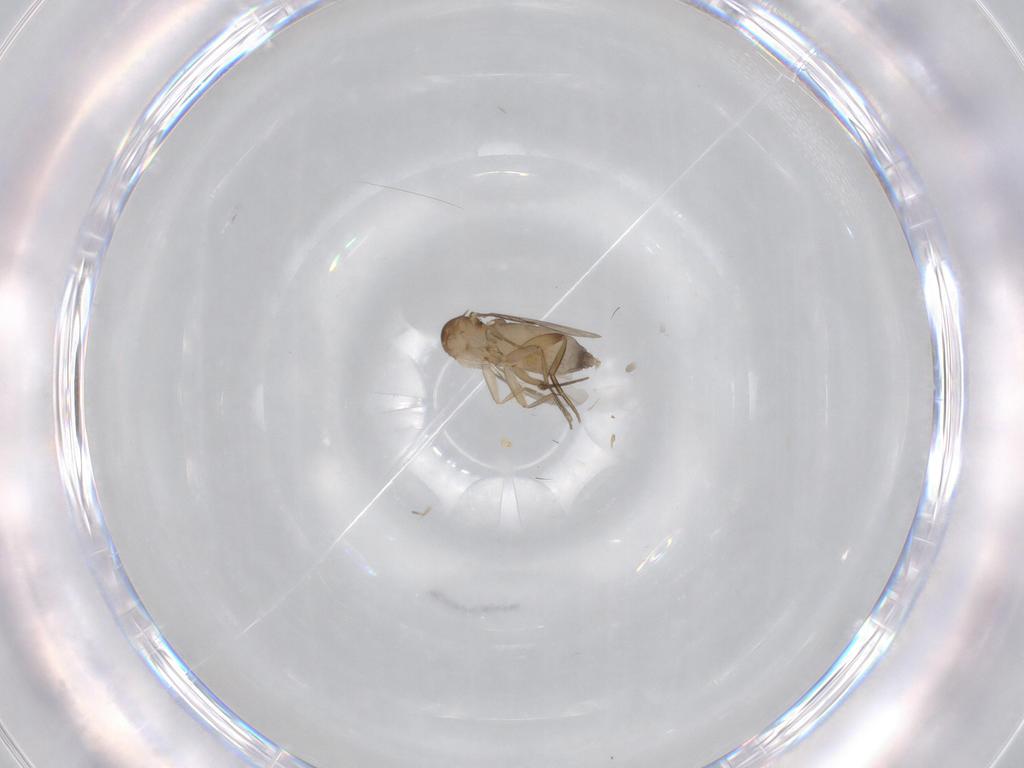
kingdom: Animalia
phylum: Arthropoda
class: Insecta
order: Diptera
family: Phoridae
